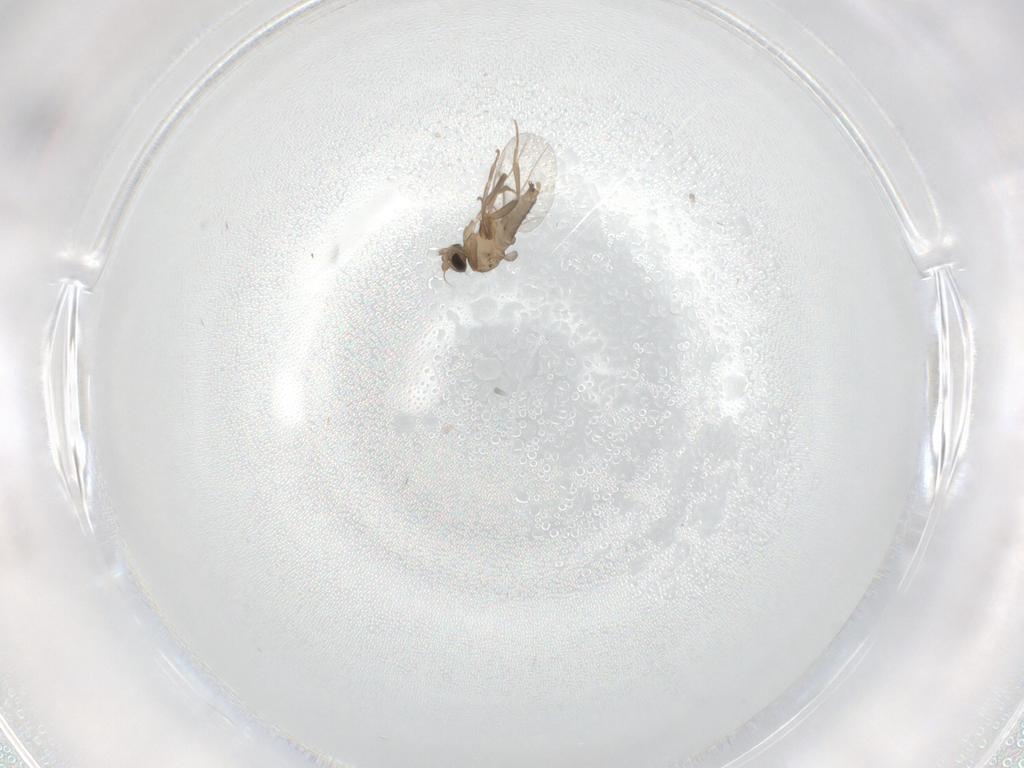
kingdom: Animalia
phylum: Arthropoda
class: Insecta
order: Diptera
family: Psychodidae
